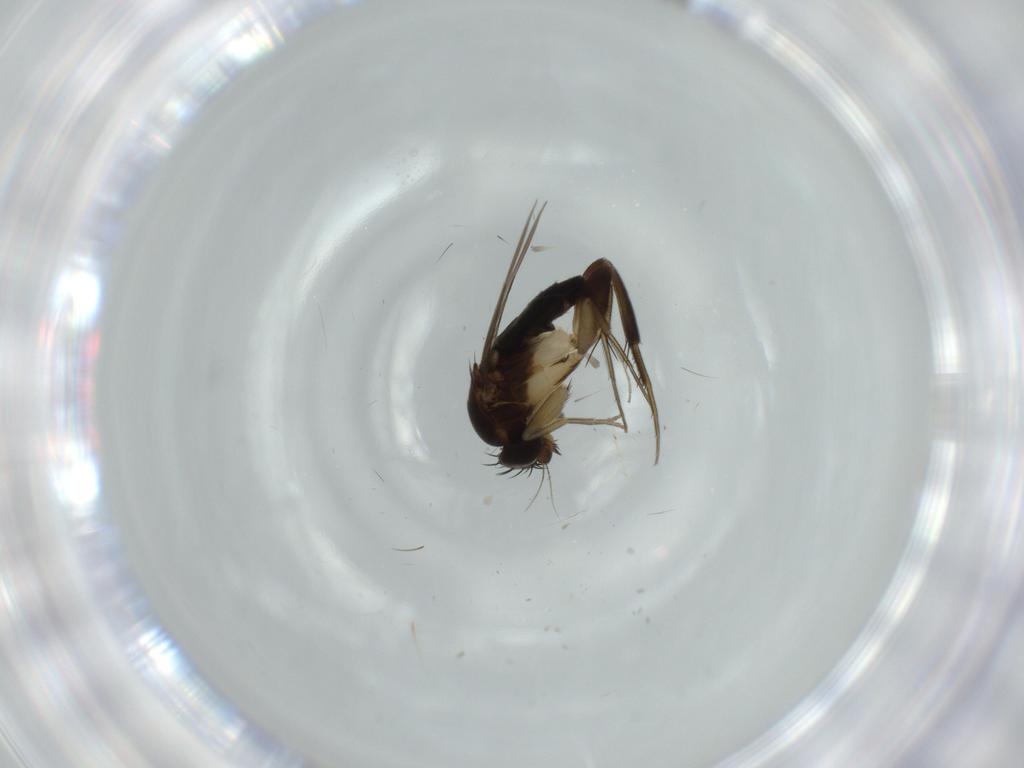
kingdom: Animalia
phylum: Arthropoda
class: Insecta
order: Diptera
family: Phoridae
